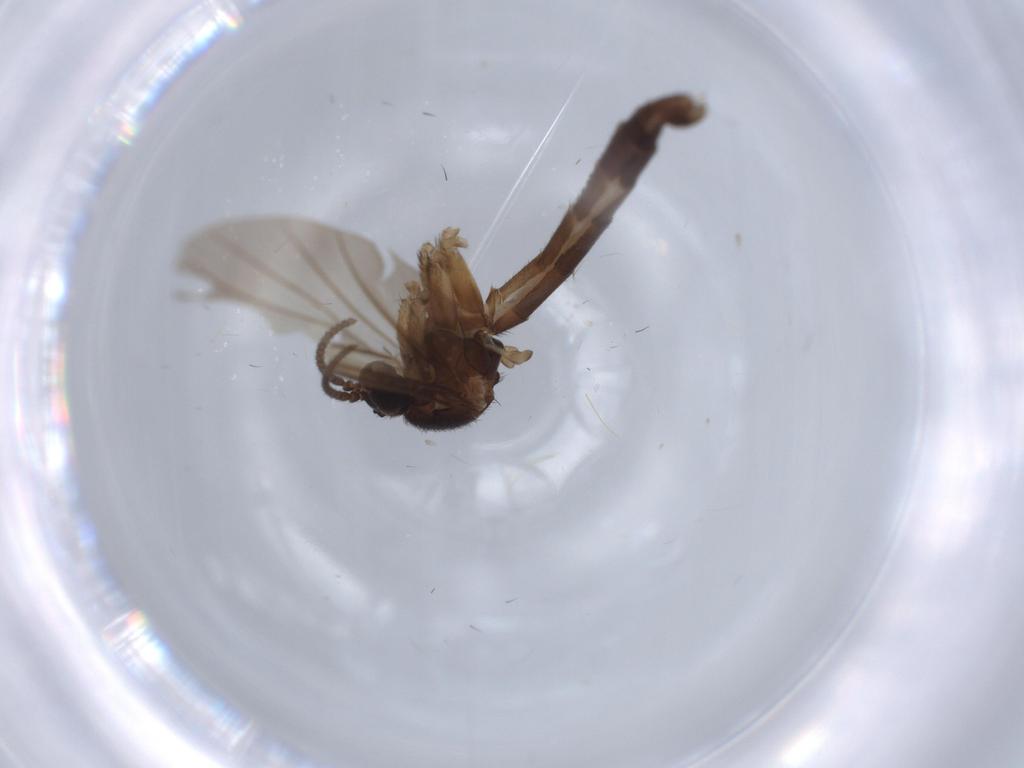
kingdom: Animalia
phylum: Arthropoda
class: Insecta
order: Diptera
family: Keroplatidae
